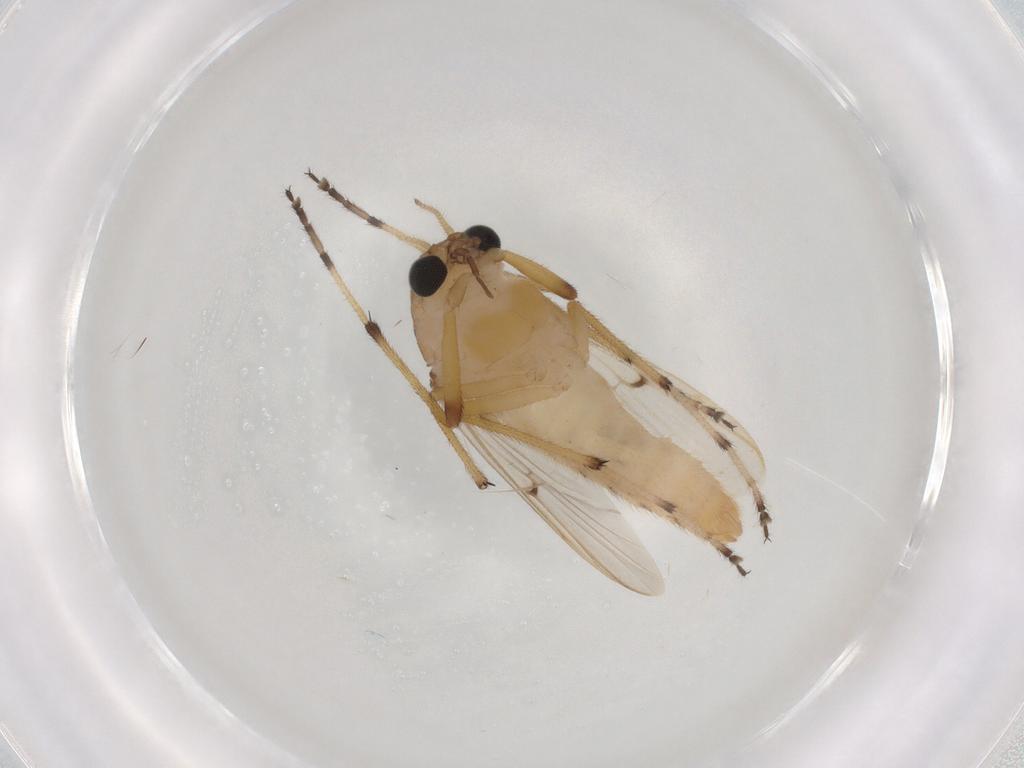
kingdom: Animalia
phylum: Arthropoda
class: Insecta
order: Diptera
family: Chironomidae
